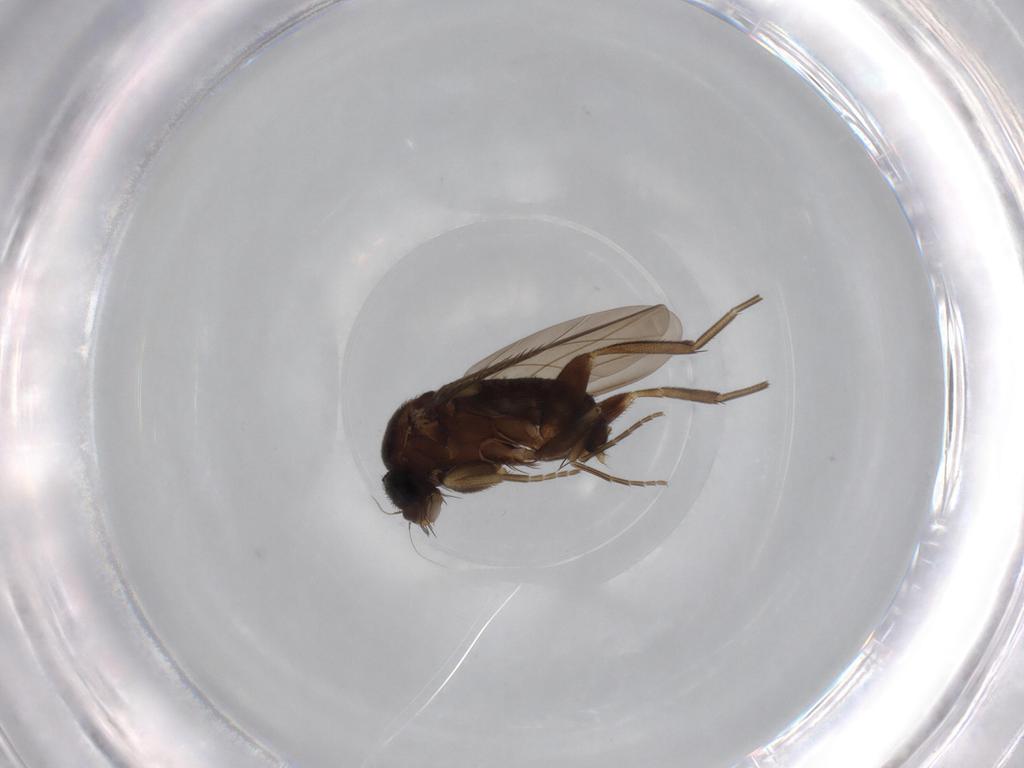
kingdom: Animalia
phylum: Arthropoda
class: Insecta
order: Diptera
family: Phoridae
